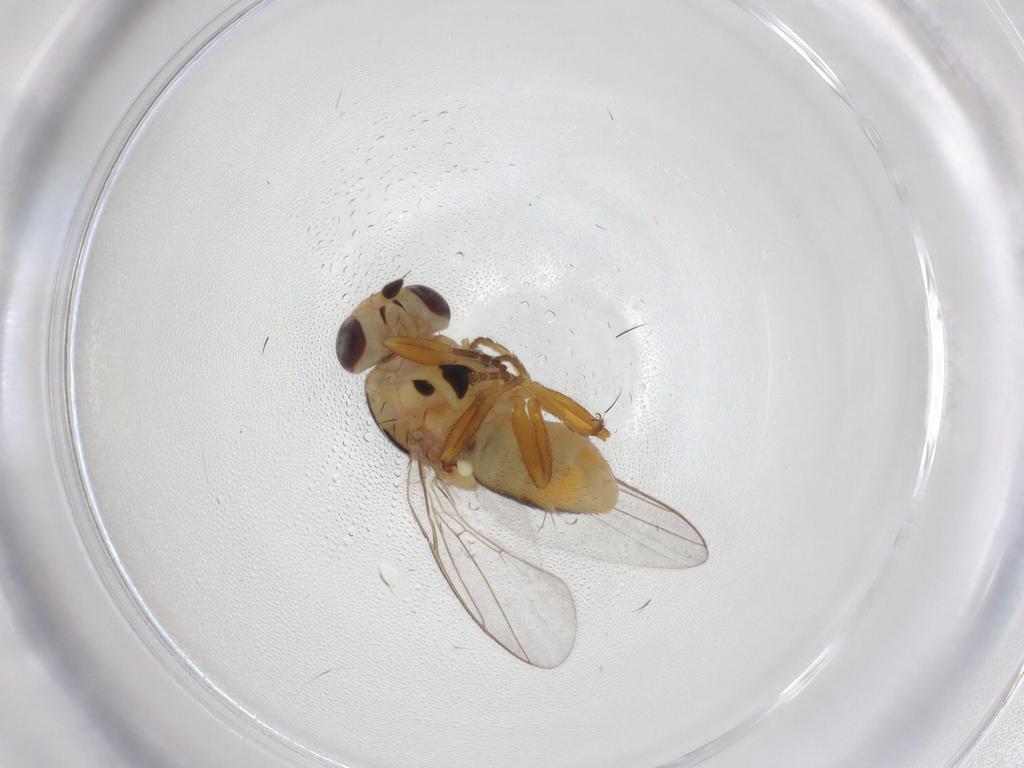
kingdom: Animalia
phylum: Arthropoda
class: Insecta
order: Diptera
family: Chloropidae
